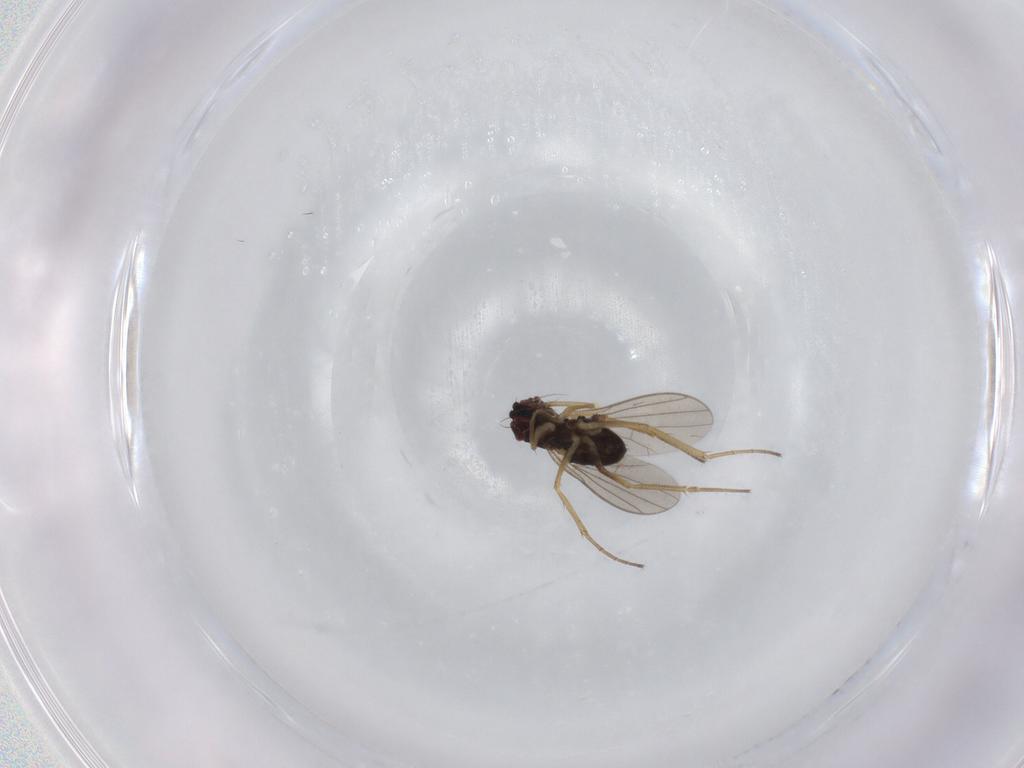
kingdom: Animalia
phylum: Arthropoda
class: Insecta
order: Diptera
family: Dolichopodidae
